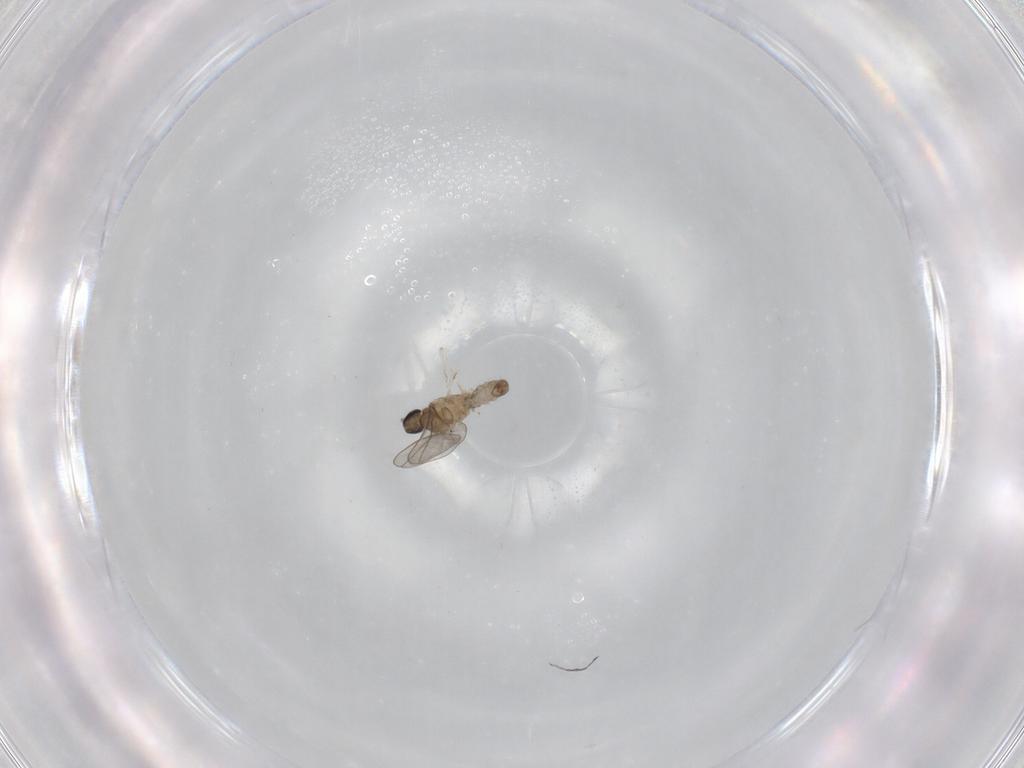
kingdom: Animalia
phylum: Arthropoda
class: Insecta
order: Diptera
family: Cecidomyiidae
